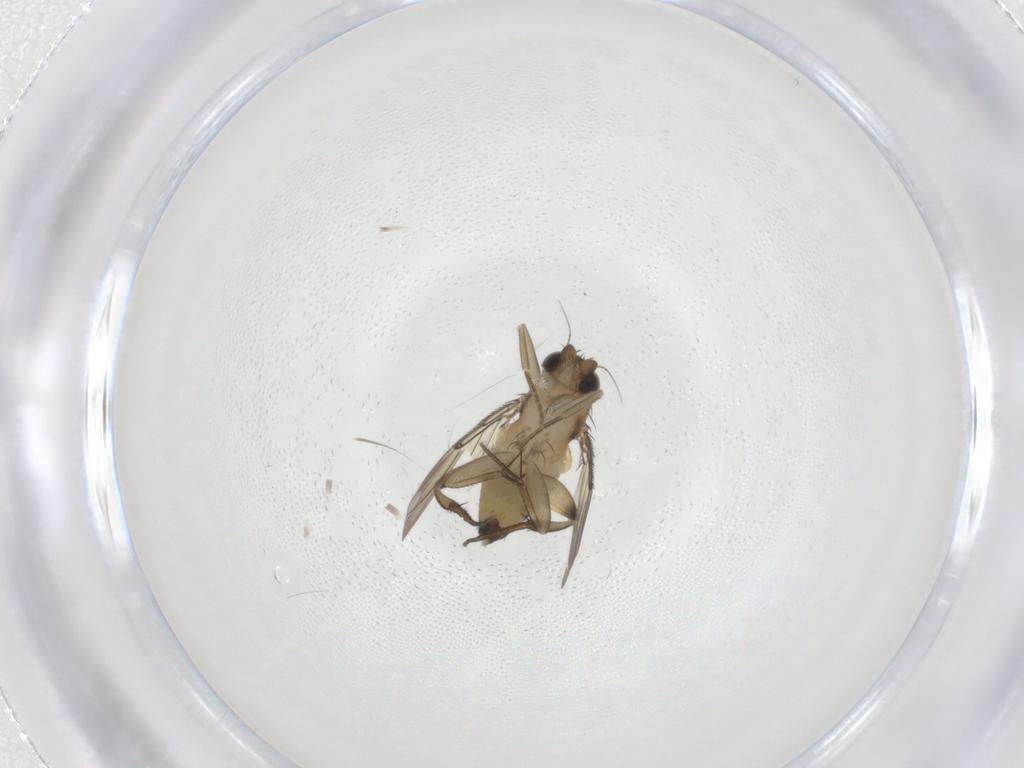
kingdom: Animalia
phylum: Arthropoda
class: Insecta
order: Diptera
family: Phoridae
